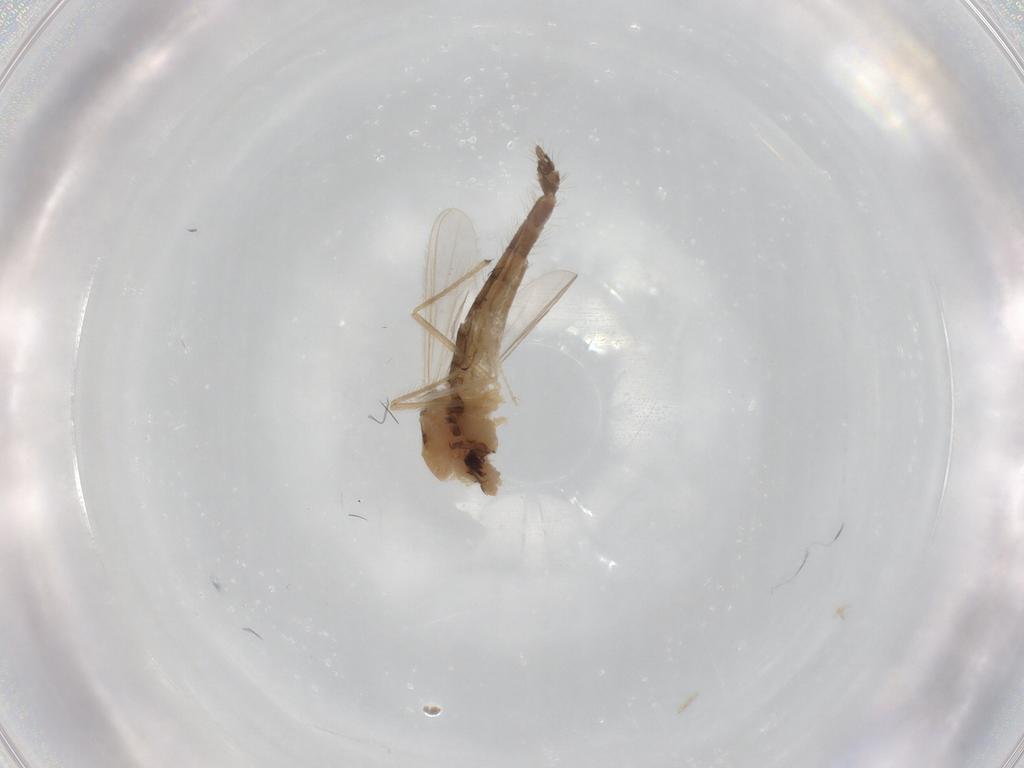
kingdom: Animalia
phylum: Arthropoda
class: Insecta
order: Diptera
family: Chironomidae
